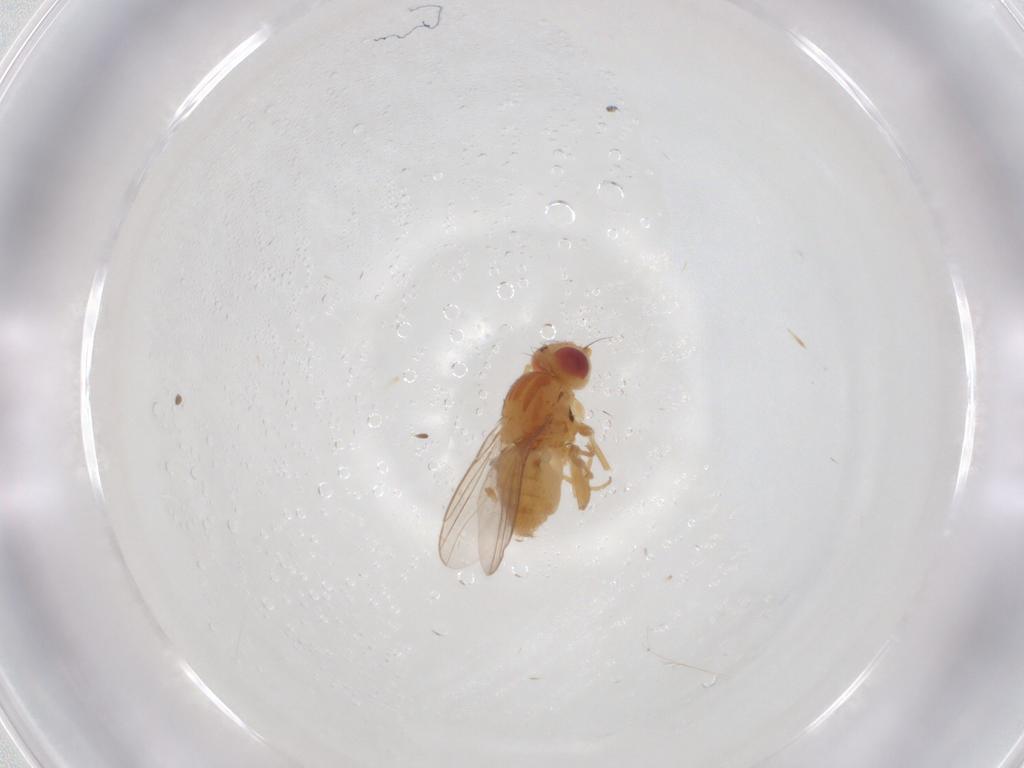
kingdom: Animalia
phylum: Arthropoda
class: Insecta
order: Diptera
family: Chloropidae
